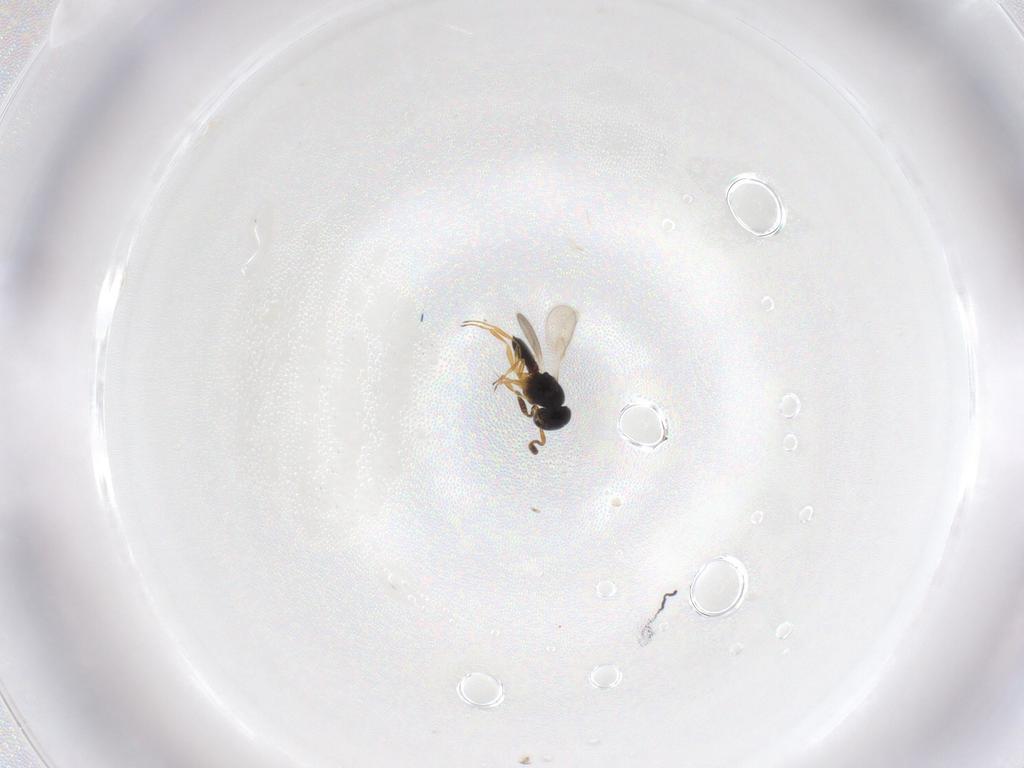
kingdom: Animalia
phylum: Arthropoda
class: Insecta
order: Hymenoptera
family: Scelionidae
